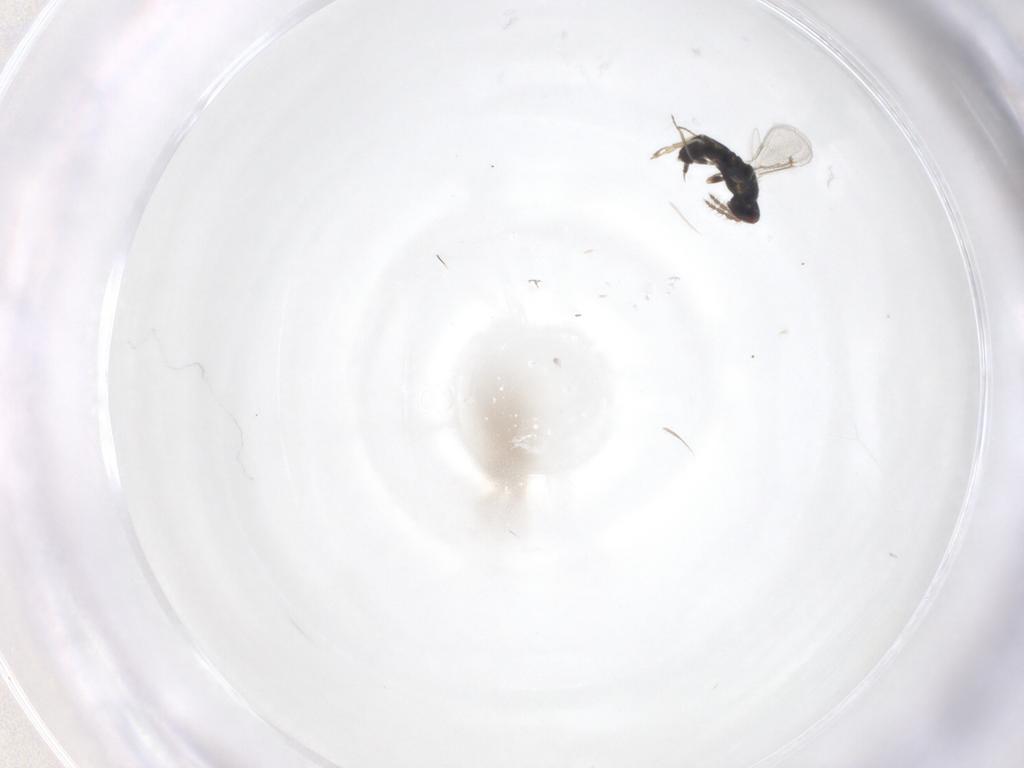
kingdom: Animalia
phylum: Arthropoda
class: Insecta
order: Hymenoptera
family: Eulophidae
